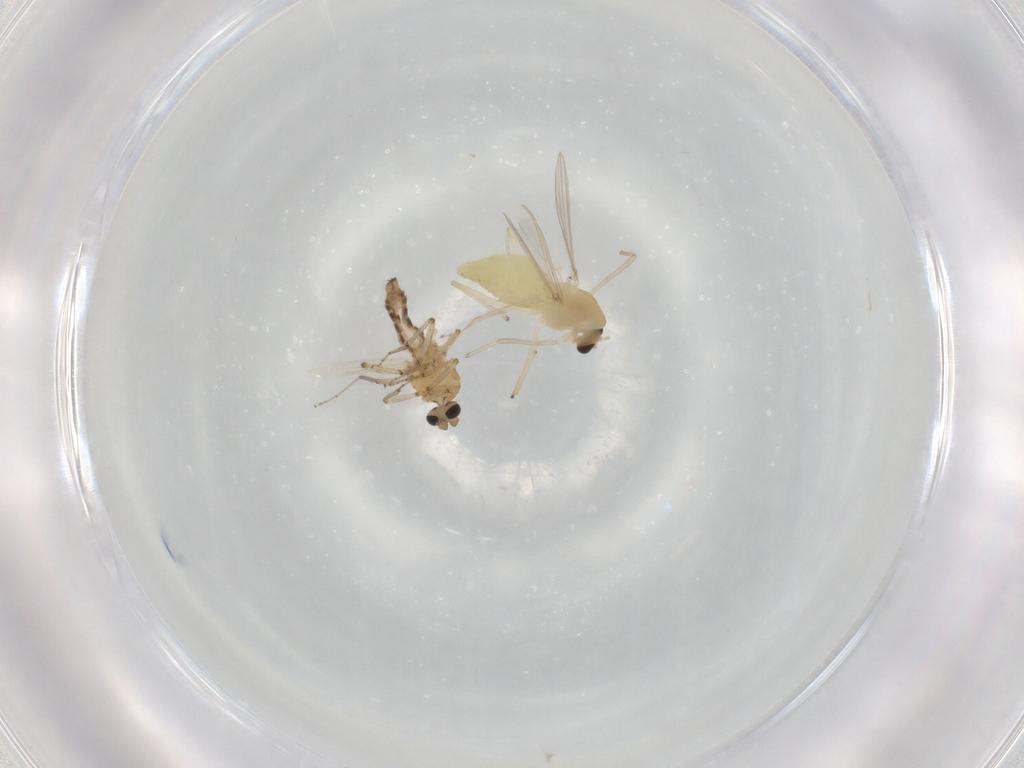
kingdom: Animalia
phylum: Arthropoda
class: Insecta
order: Diptera
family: Chironomidae
